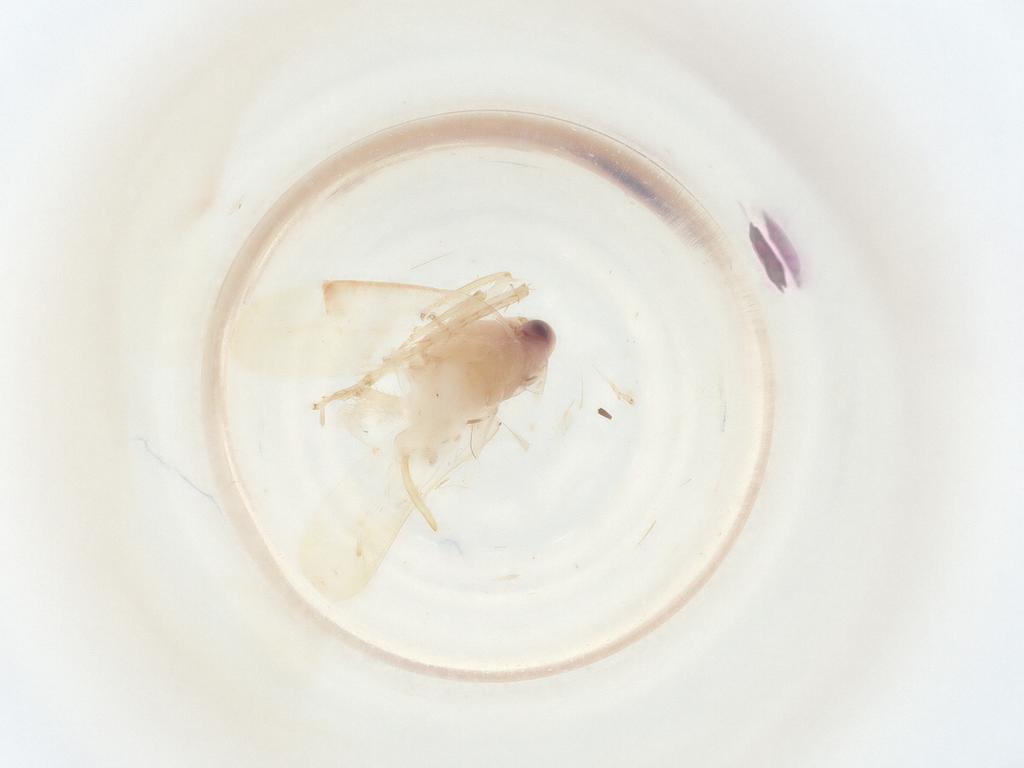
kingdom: Animalia
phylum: Arthropoda
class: Insecta
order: Hemiptera
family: Cicadellidae
